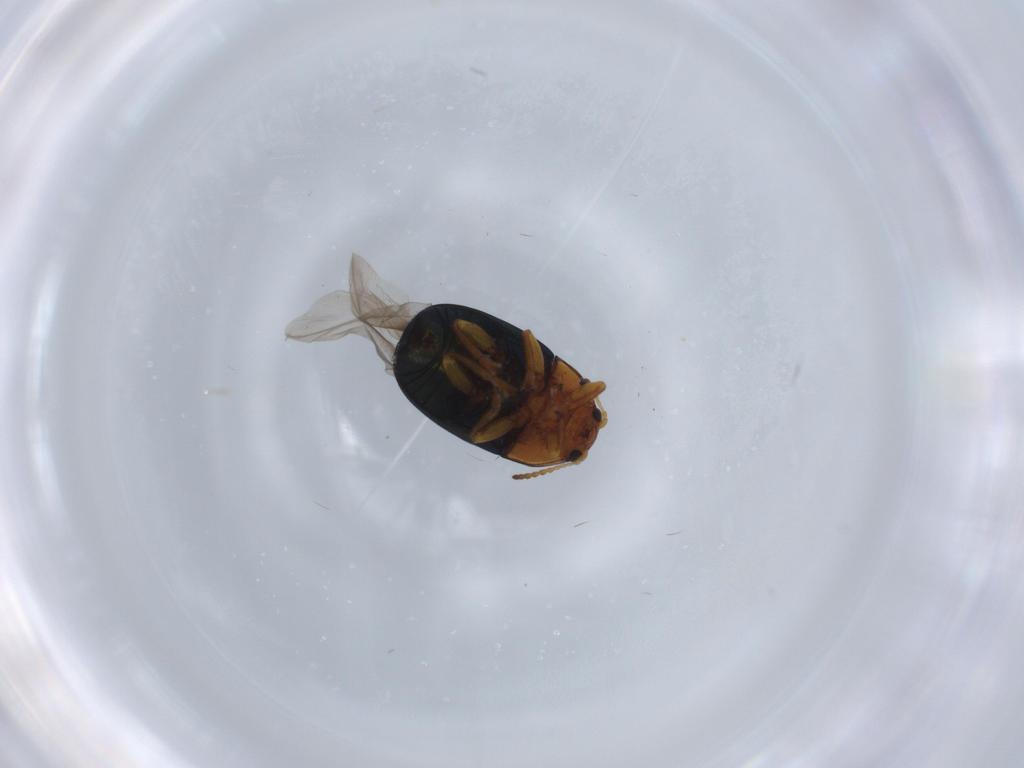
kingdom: Animalia
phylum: Arthropoda
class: Insecta
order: Coleoptera
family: Chrysomelidae
